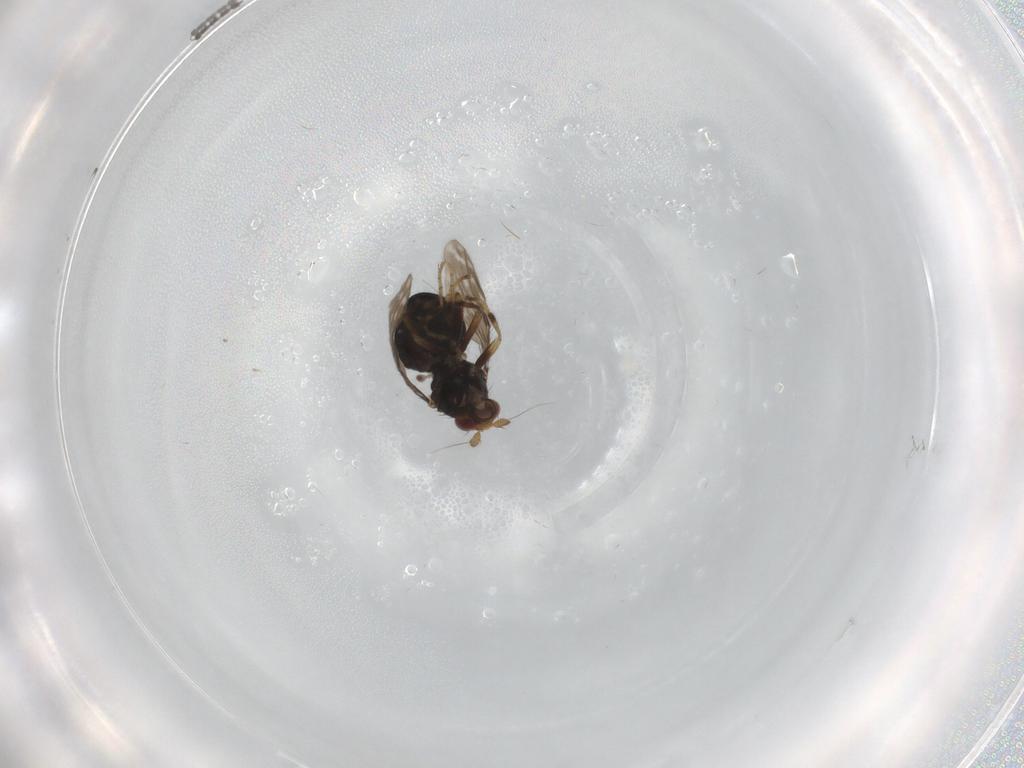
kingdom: Animalia
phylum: Arthropoda
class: Insecta
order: Diptera
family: Sphaeroceridae
